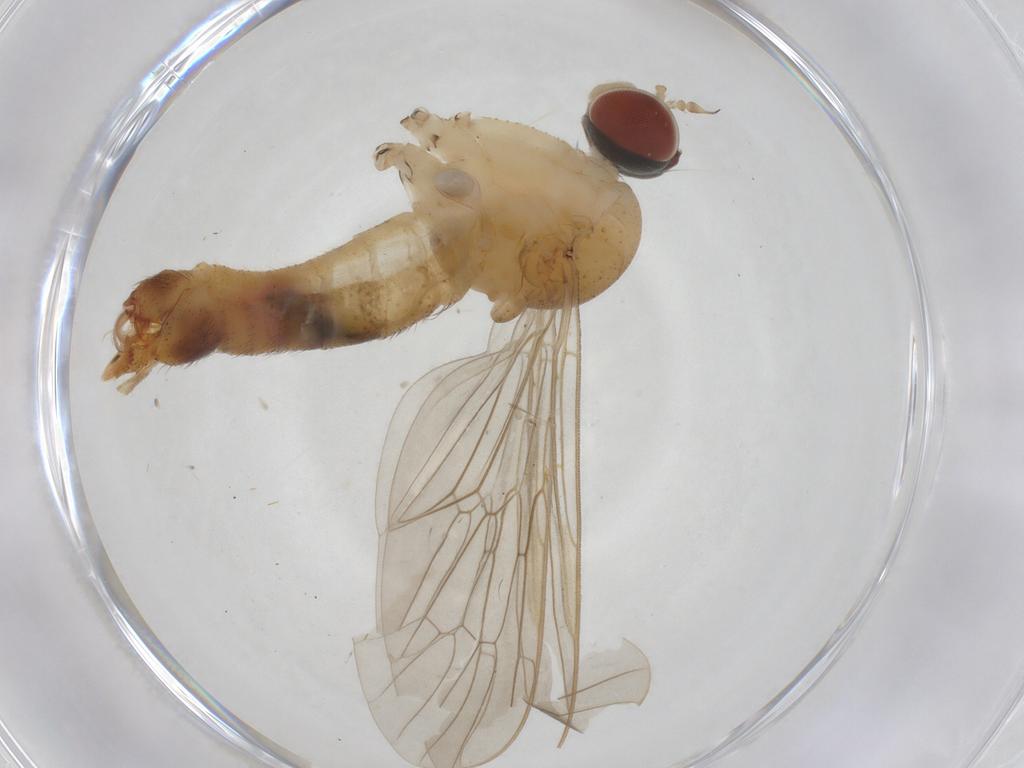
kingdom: Animalia
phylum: Arthropoda
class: Insecta
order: Diptera
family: Apsilocephalidae
